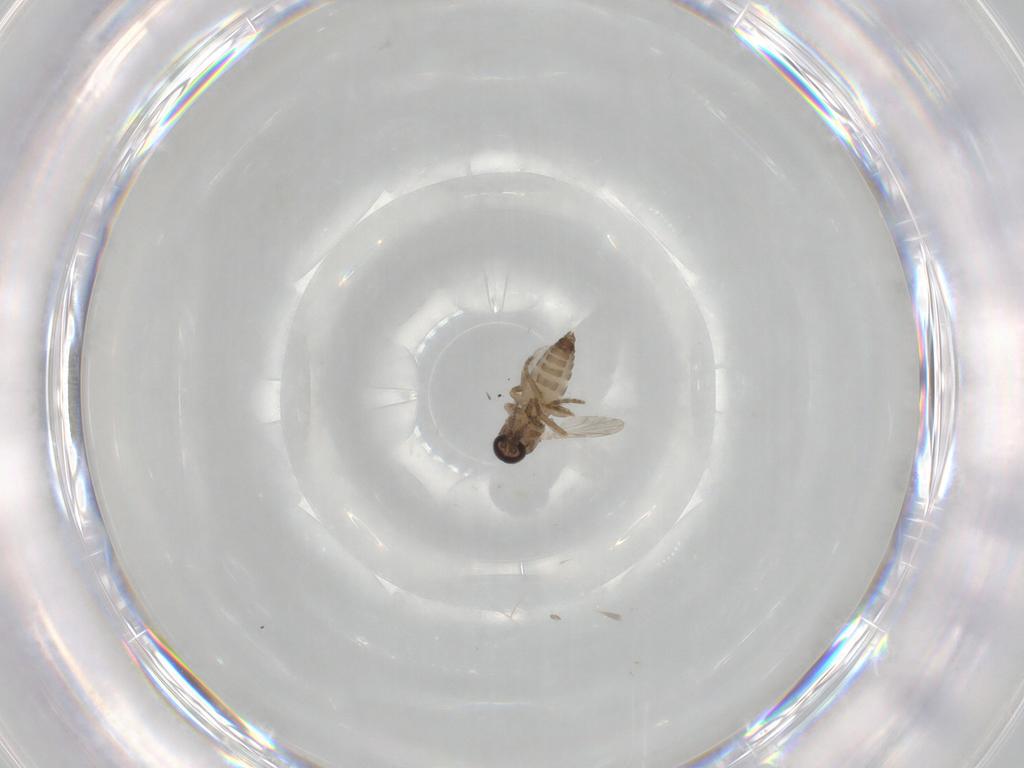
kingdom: Animalia
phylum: Arthropoda
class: Insecta
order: Diptera
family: Ceratopogonidae
